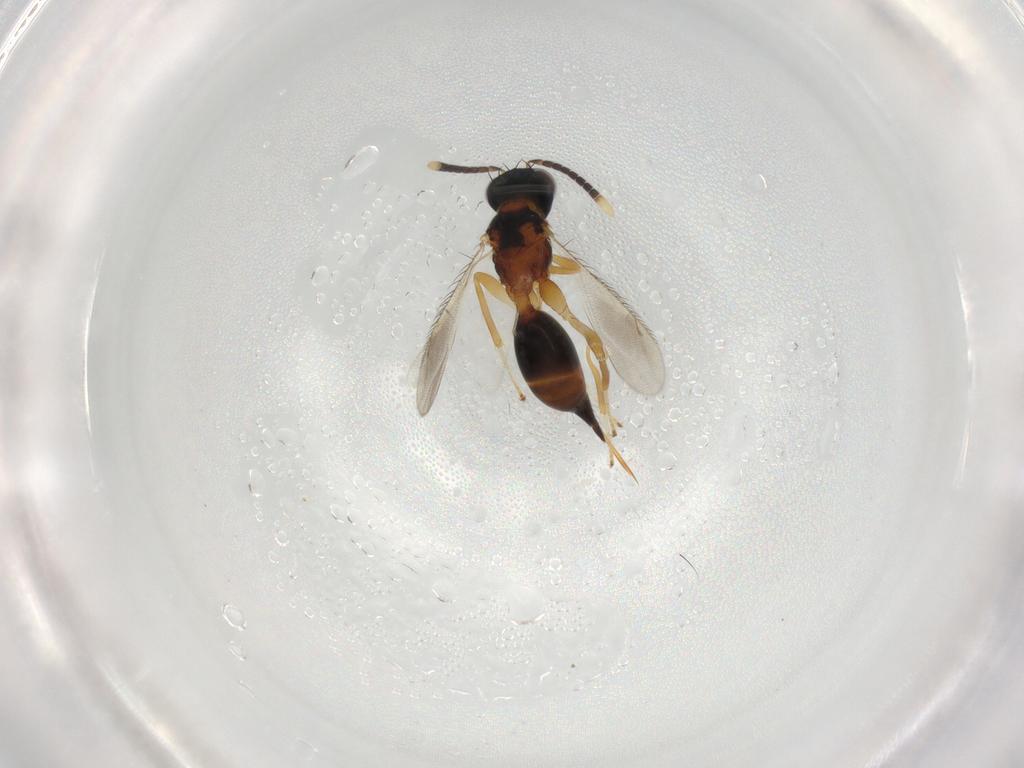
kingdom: Animalia
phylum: Arthropoda
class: Insecta
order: Hymenoptera
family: Diparidae
